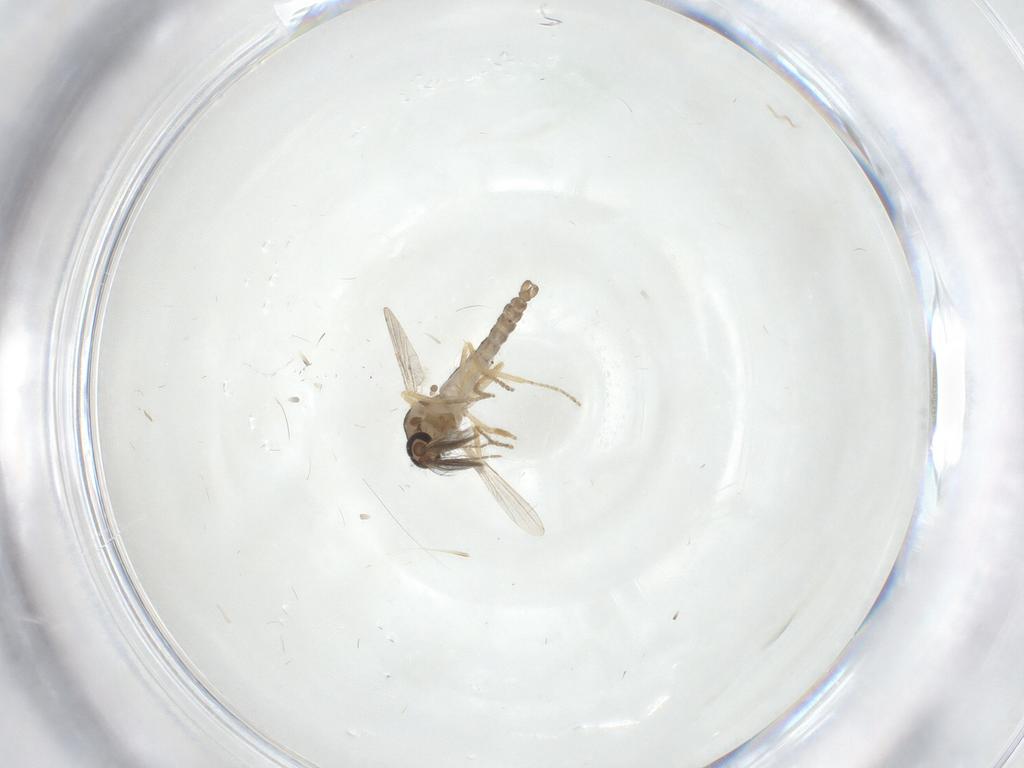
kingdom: Animalia
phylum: Arthropoda
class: Insecta
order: Diptera
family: Ceratopogonidae
